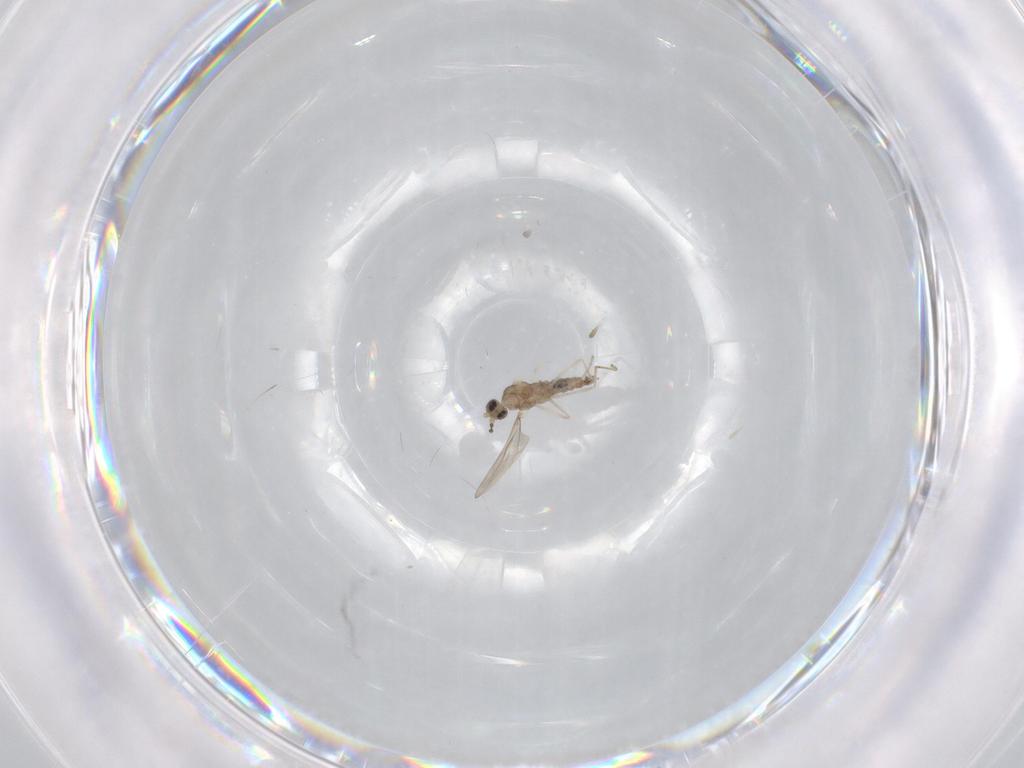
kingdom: Animalia
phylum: Arthropoda
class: Insecta
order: Diptera
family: Cecidomyiidae
